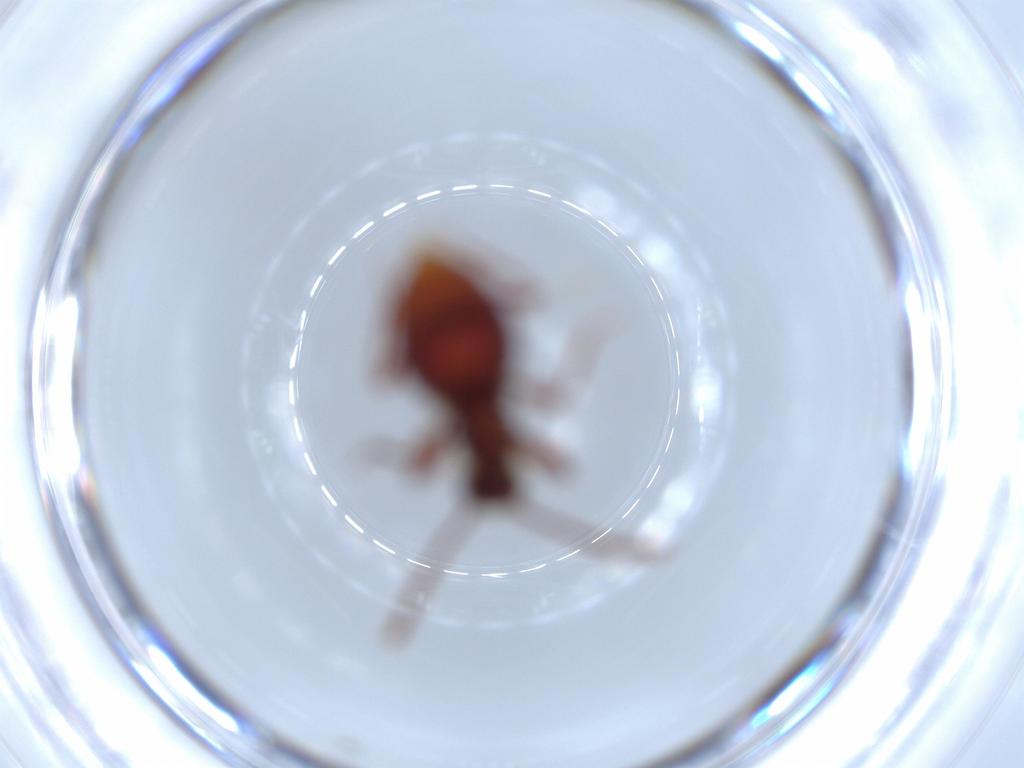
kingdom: Animalia
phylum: Arthropoda
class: Insecta
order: Coleoptera
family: Staphylinidae
